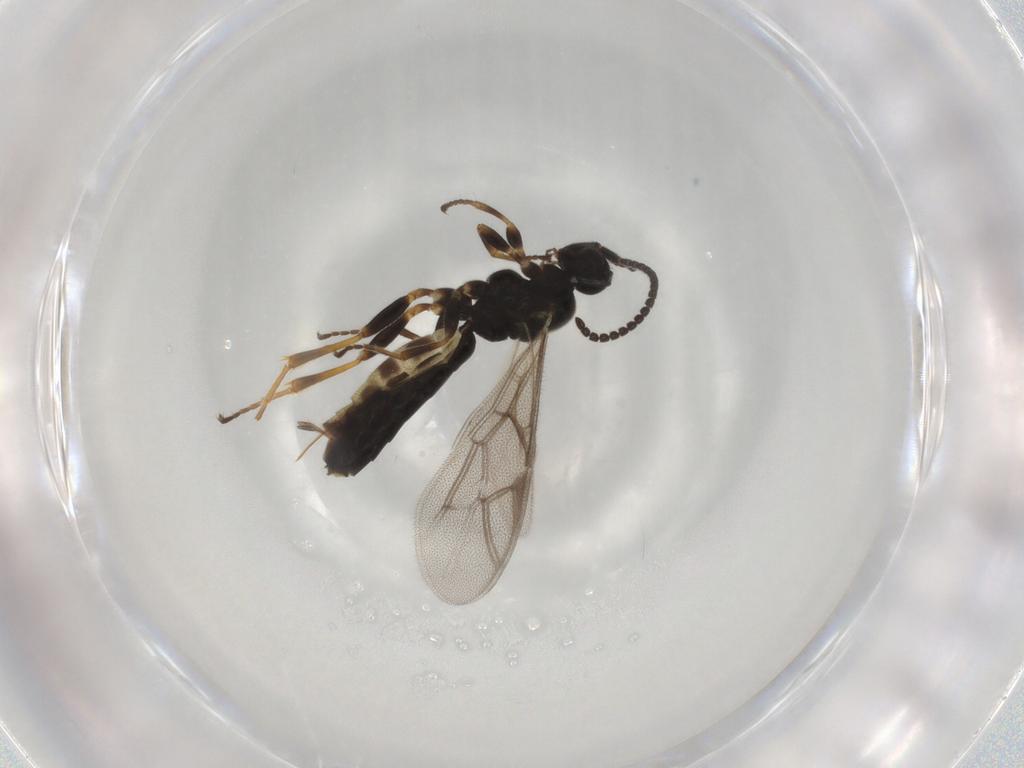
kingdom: Animalia
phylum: Arthropoda
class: Insecta
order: Hymenoptera
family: Ichneumonidae
